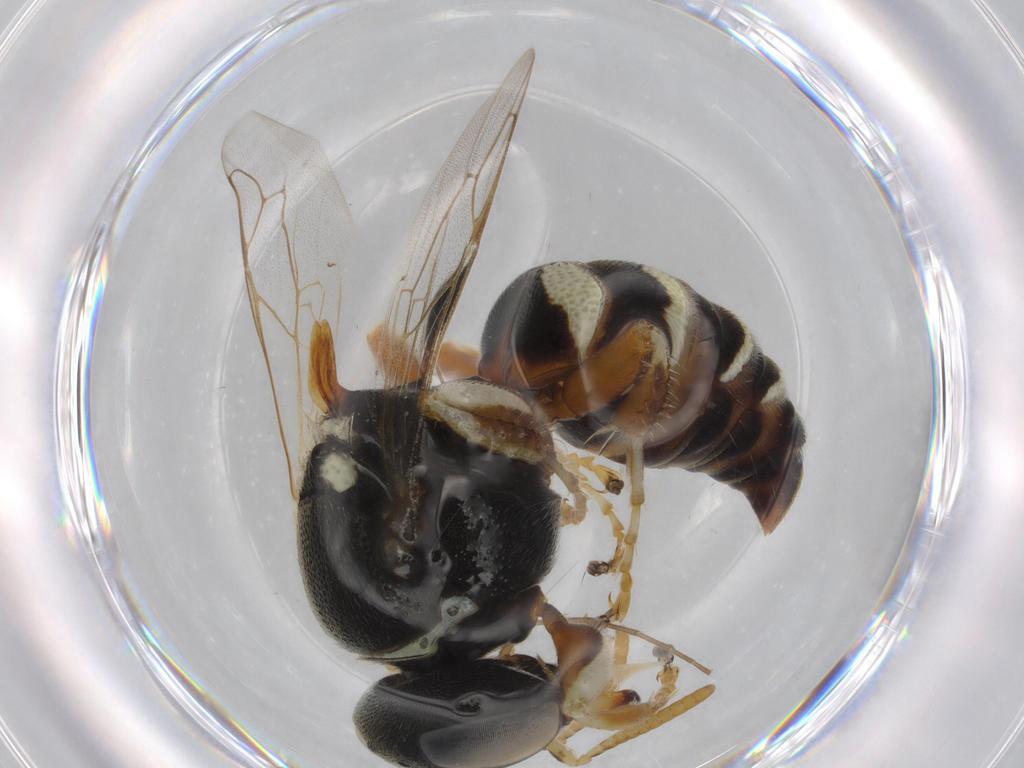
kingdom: Animalia
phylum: Arthropoda
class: Insecta
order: Hymenoptera
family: Crabronidae
